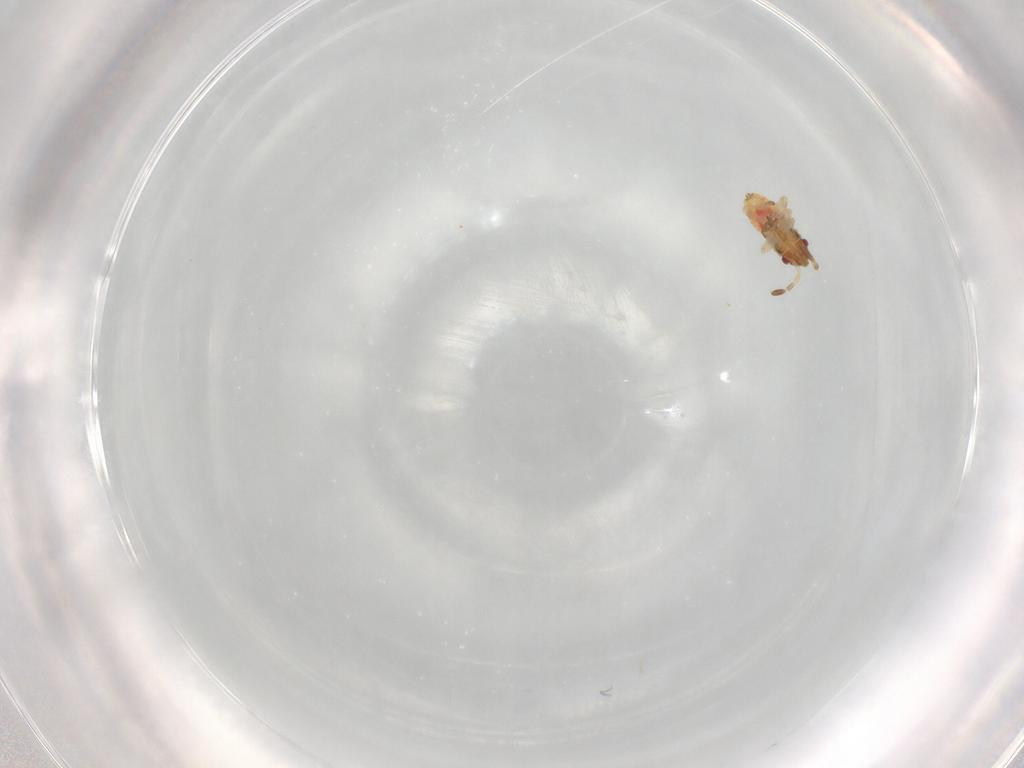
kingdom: Animalia
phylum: Arthropoda
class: Insecta
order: Hemiptera
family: Lygaeidae
